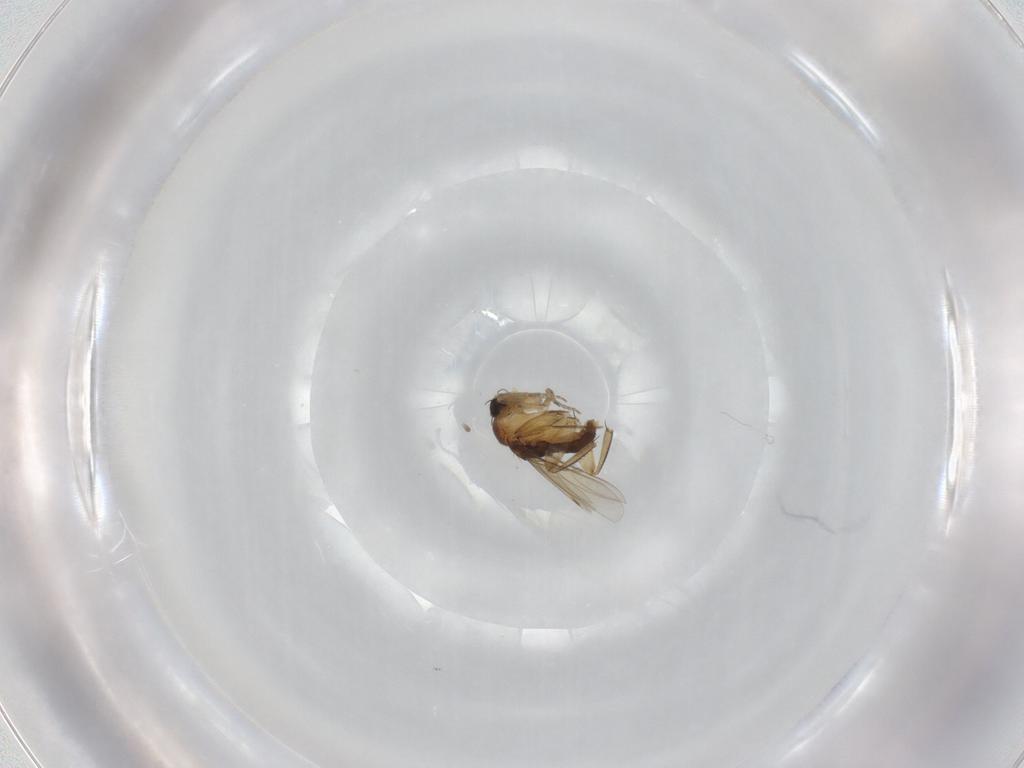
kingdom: Animalia
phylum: Arthropoda
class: Insecta
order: Diptera
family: Phoridae
